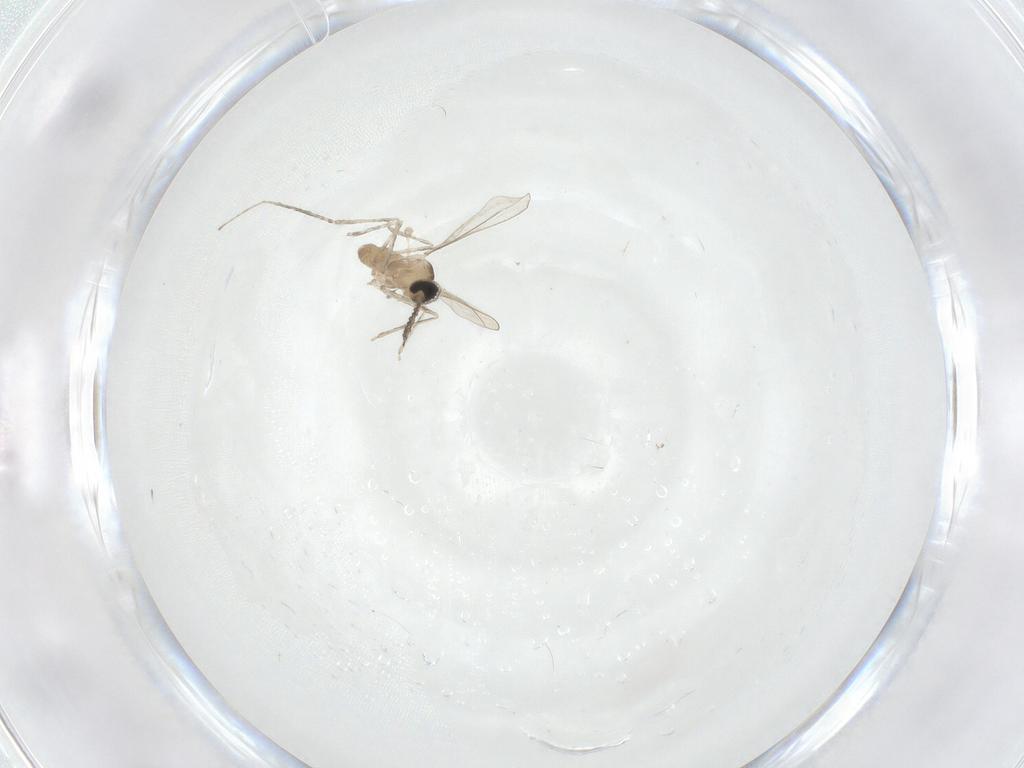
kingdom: Animalia
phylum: Arthropoda
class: Insecta
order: Diptera
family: Cecidomyiidae
